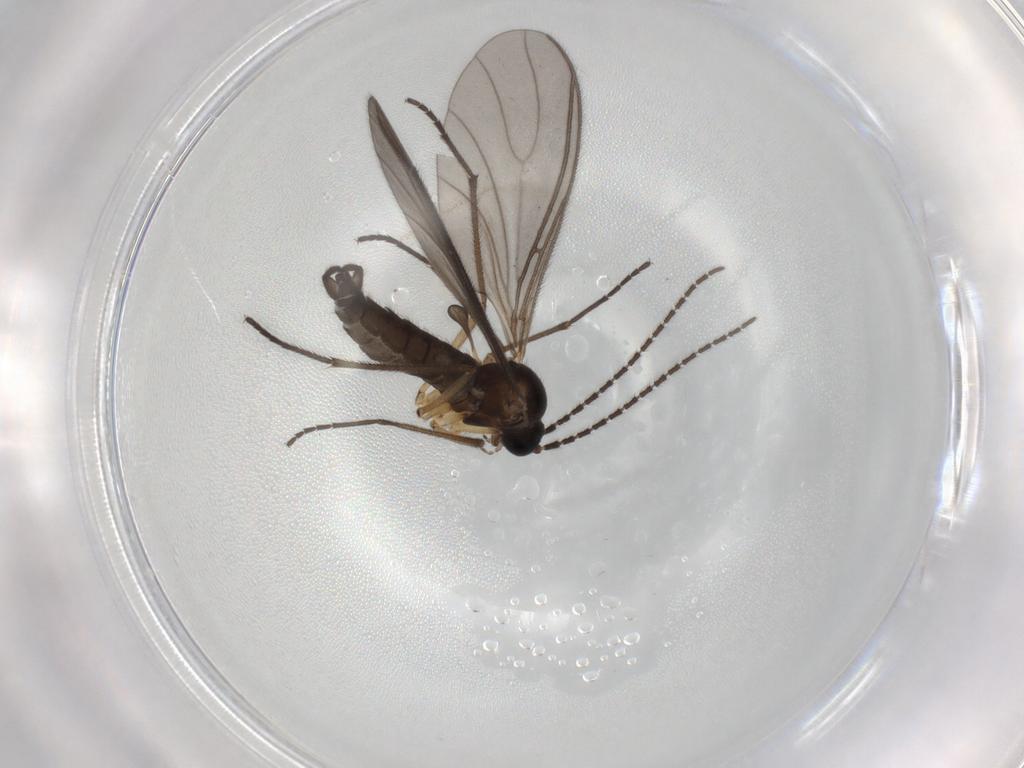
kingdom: Animalia
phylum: Arthropoda
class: Insecta
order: Diptera
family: Sciaridae
